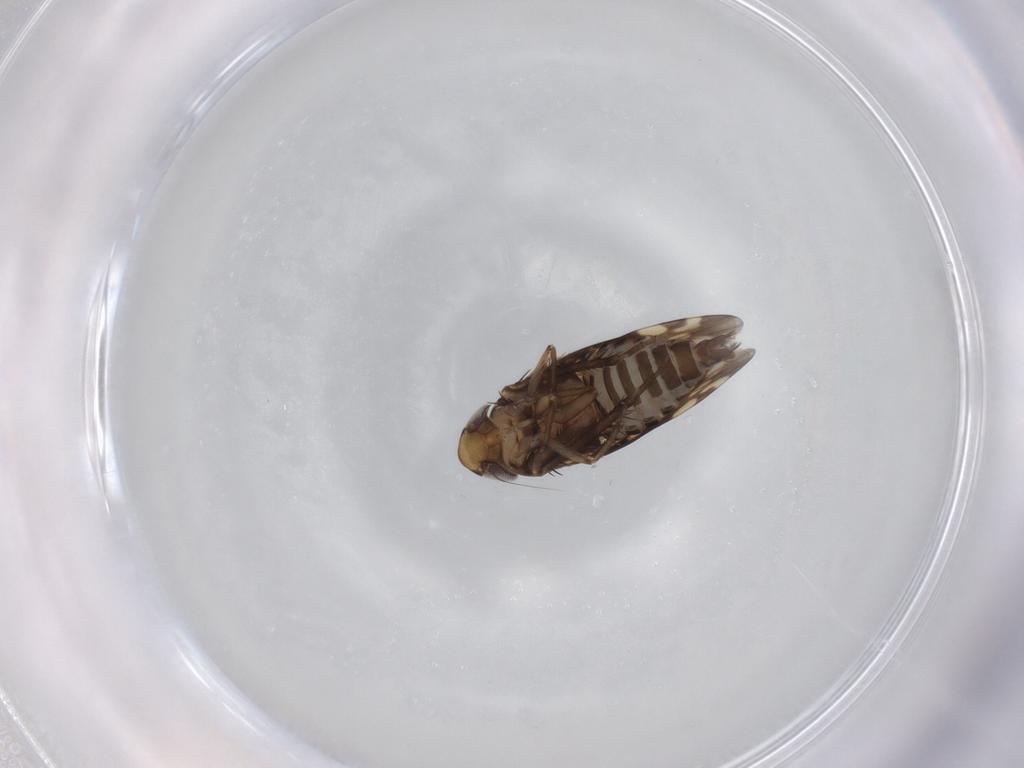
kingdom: Animalia
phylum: Arthropoda
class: Insecta
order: Hemiptera
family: Cicadellidae
